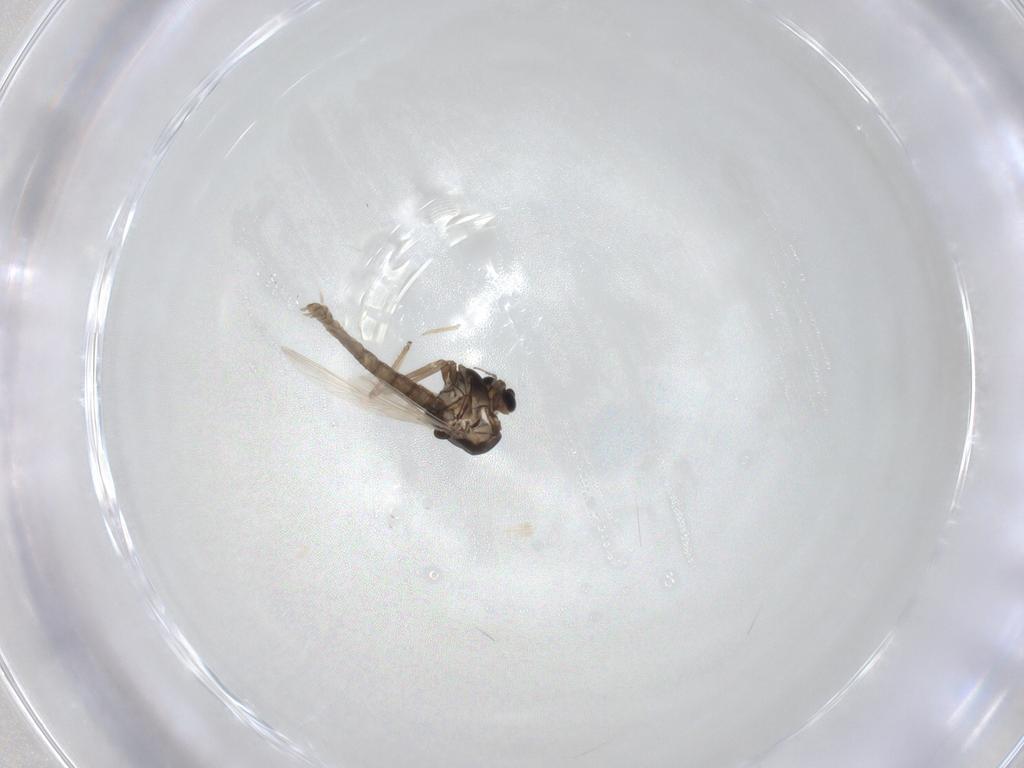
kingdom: Animalia
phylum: Arthropoda
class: Insecta
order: Diptera
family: Chironomidae
